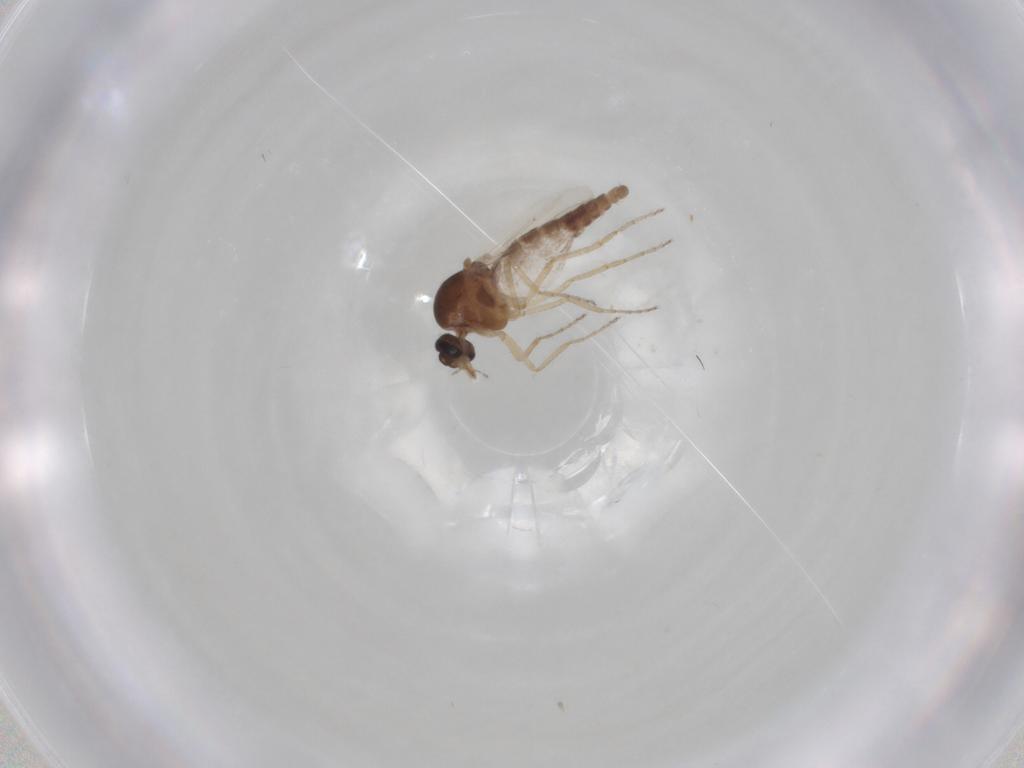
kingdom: Animalia
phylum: Arthropoda
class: Insecta
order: Diptera
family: Ceratopogonidae
